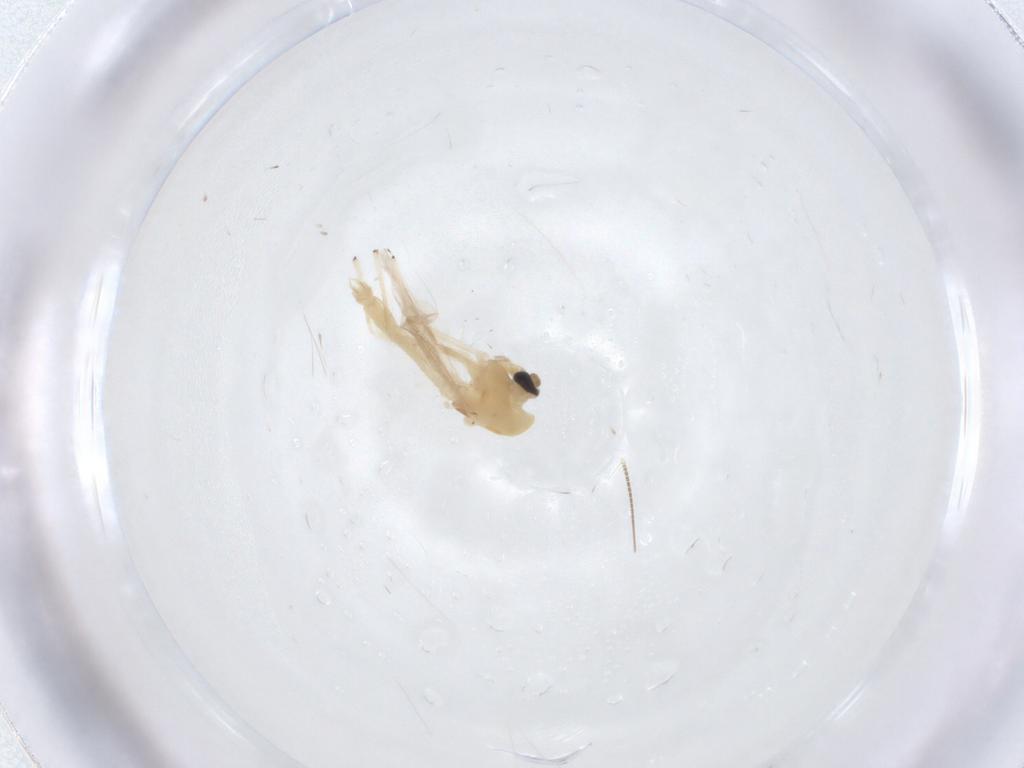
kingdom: Animalia
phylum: Arthropoda
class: Insecta
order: Diptera
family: Chironomidae
